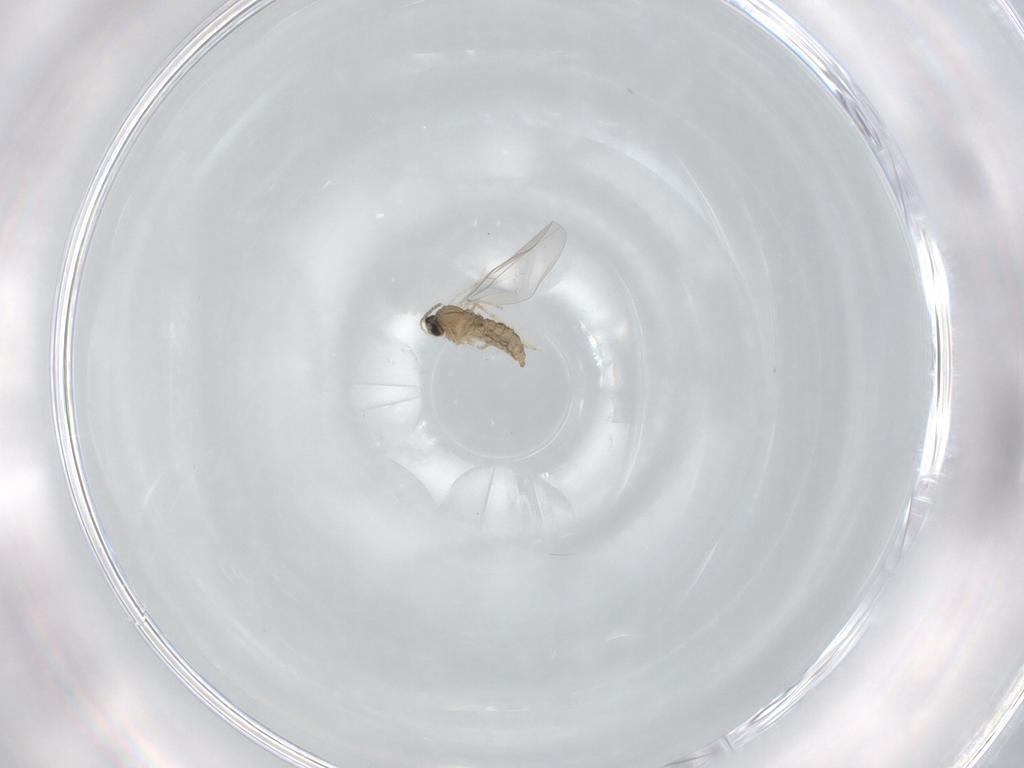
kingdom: Animalia
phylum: Arthropoda
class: Insecta
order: Diptera
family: Cecidomyiidae
